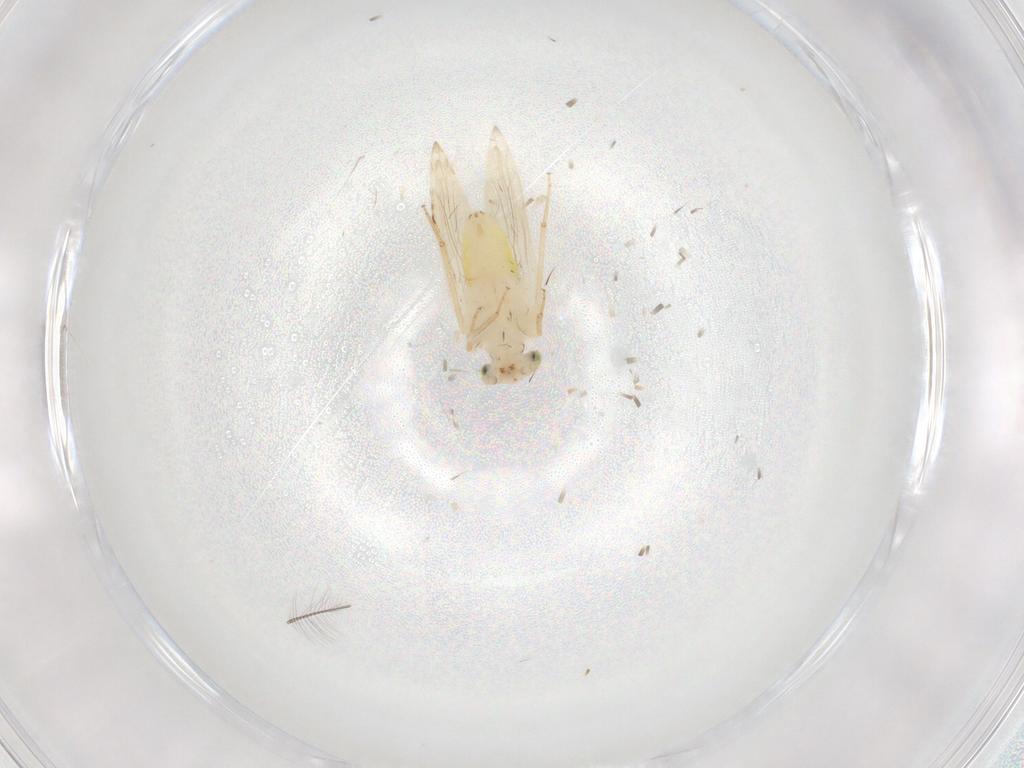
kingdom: Animalia
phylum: Arthropoda
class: Insecta
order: Psocodea
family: Lepidopsocidae
